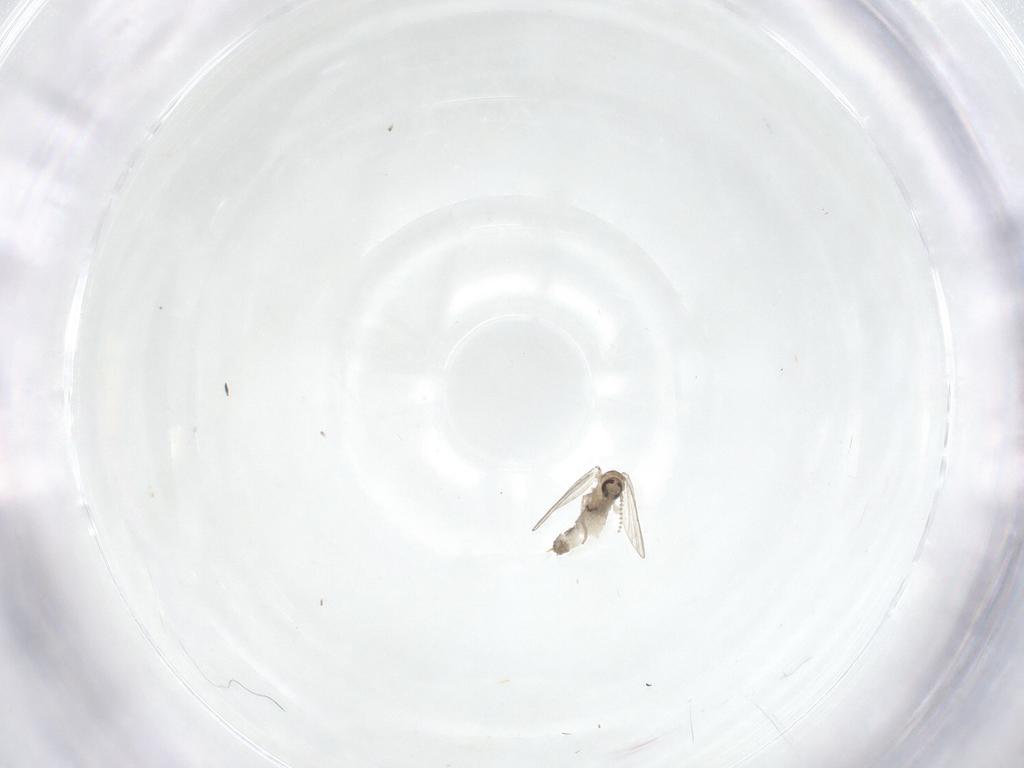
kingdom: Animalia
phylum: Arthropoda
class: Insecta
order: Diptera
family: Psychodidae
